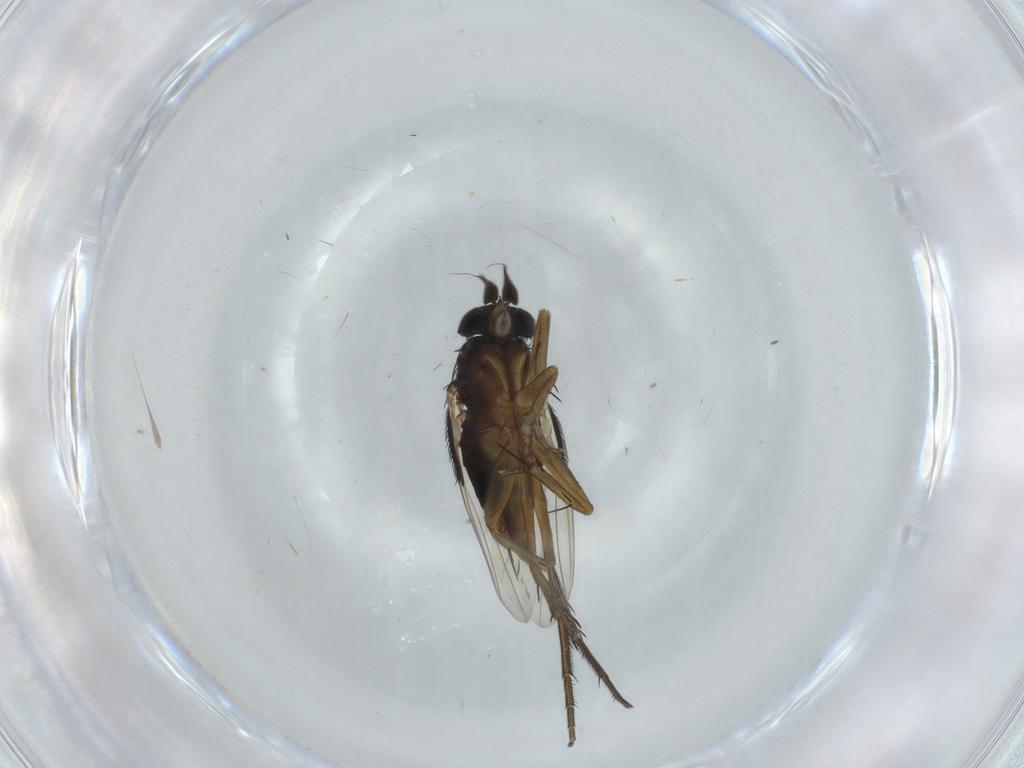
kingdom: Animalia
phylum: Arthropoda
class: Insecta
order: Diptera
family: Phoridae
